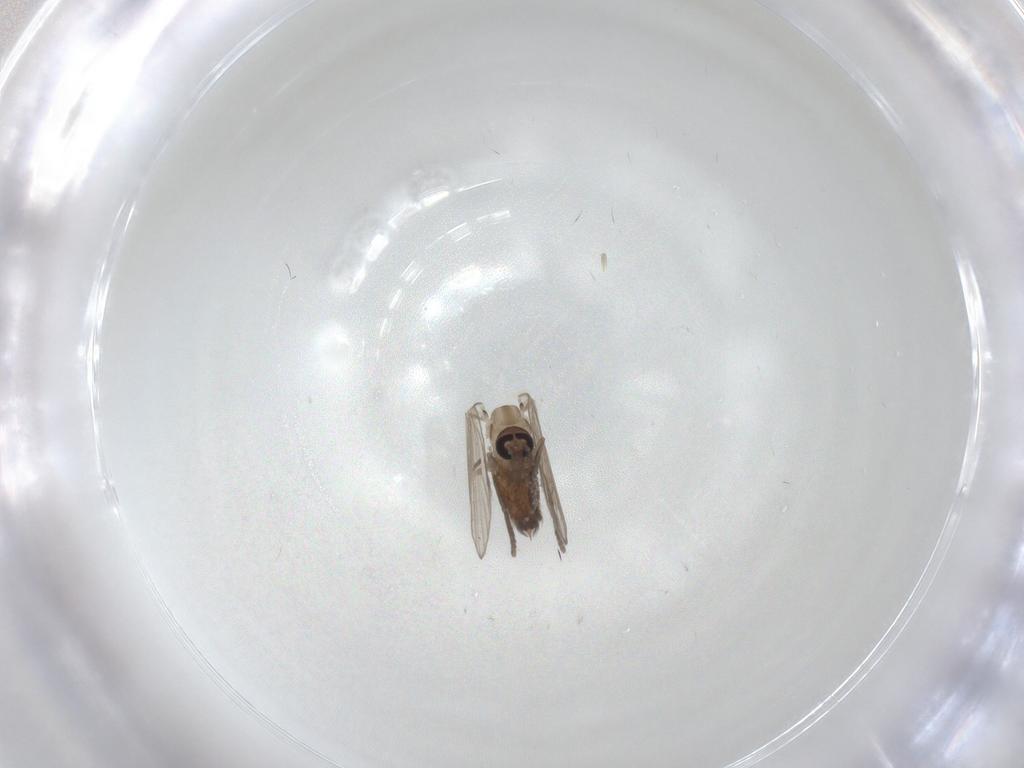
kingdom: Animalia
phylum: Arthropoda
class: Insecta
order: Diptera
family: Psychodidae
